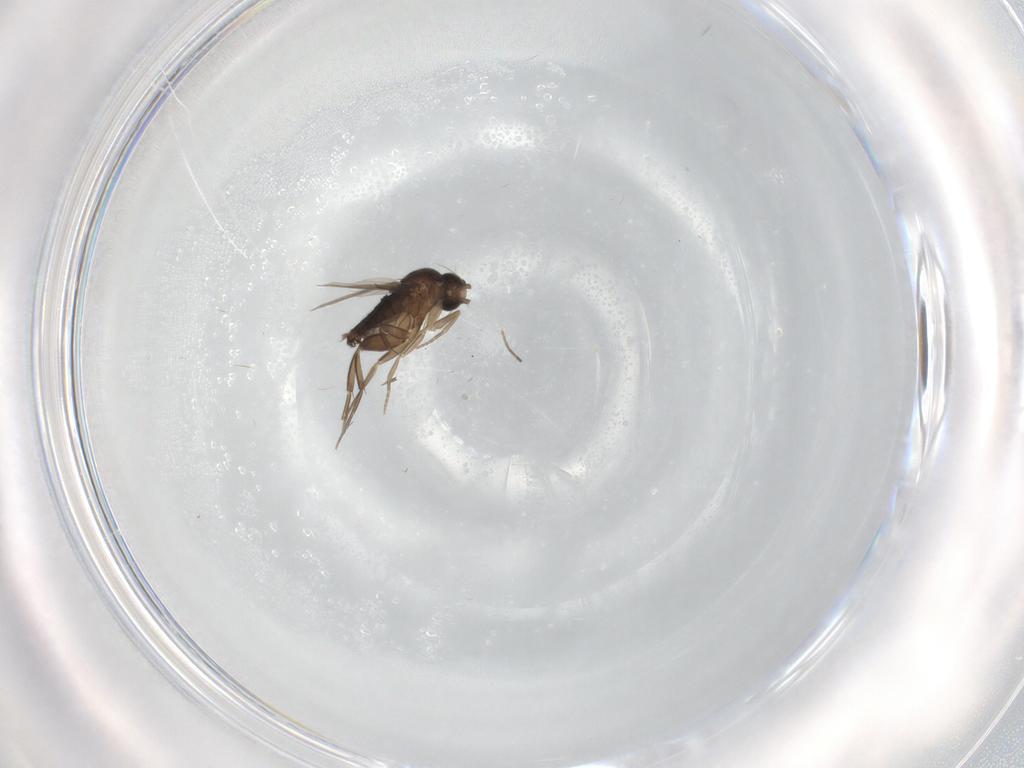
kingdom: Animalia
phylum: Arthropoda
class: Insecta
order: Diptera
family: Phoridae
